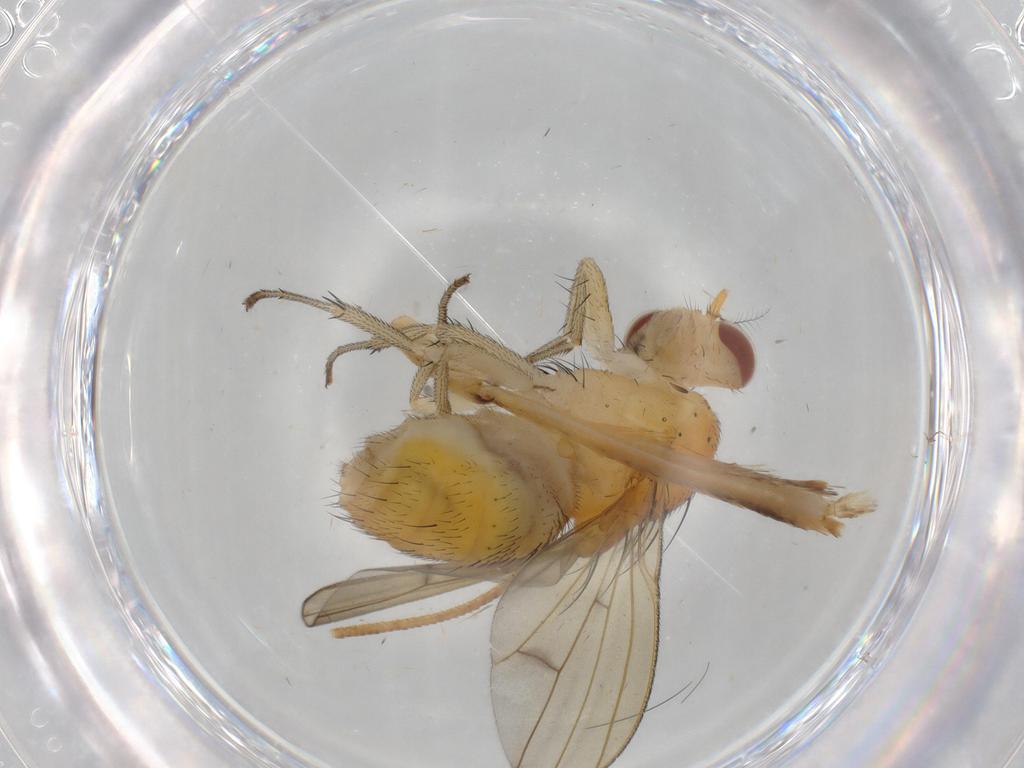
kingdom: Animalia
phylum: Arthropoda
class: Insecta
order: Diptera
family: Lauxaniidae
